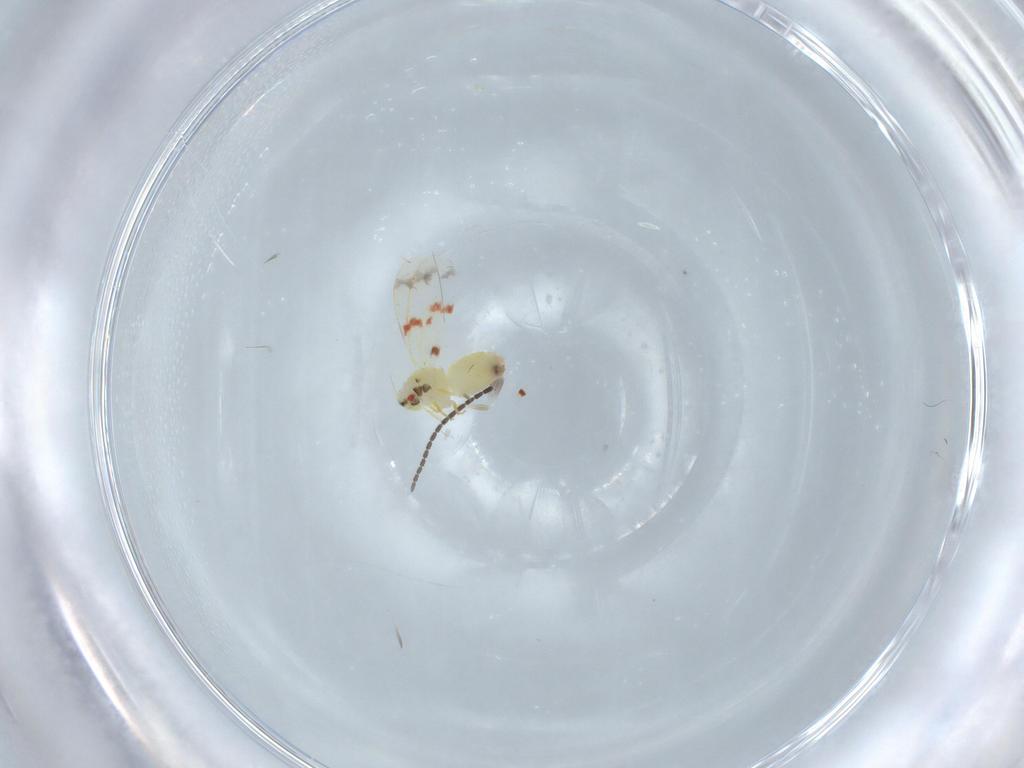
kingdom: Animalia
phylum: Arthropoda
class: Insecta
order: Hemiptera
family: Aleyrodidae
